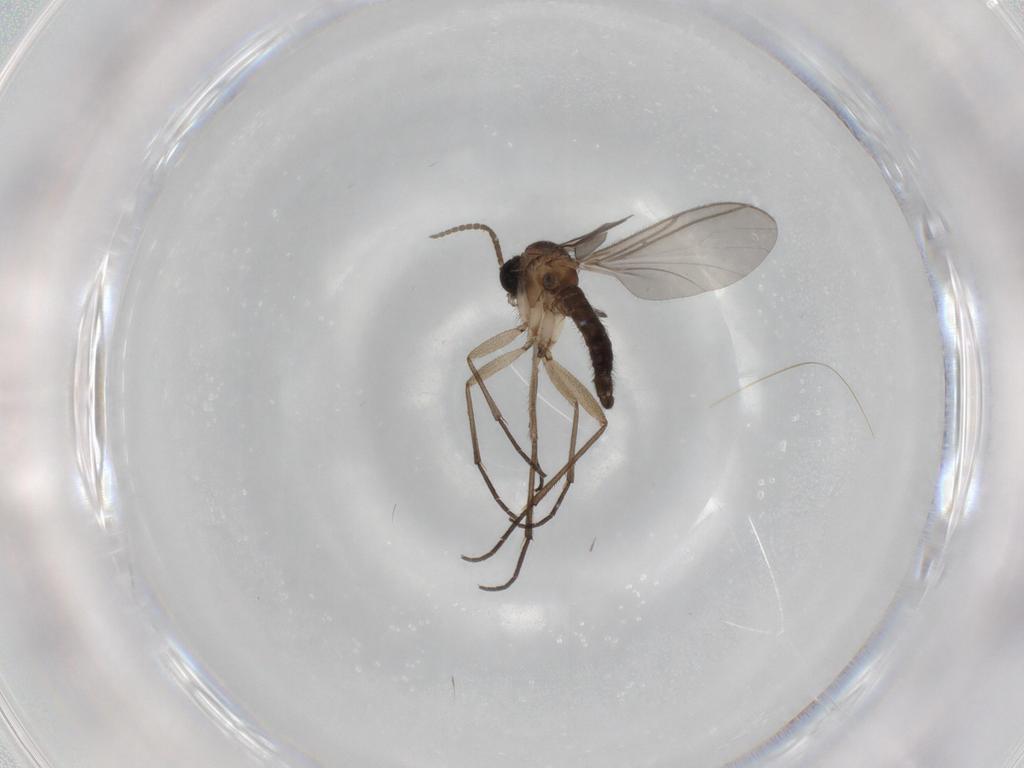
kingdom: Animalia
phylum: Arthropoda
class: Insecta
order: Diptera
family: Sciaridae
